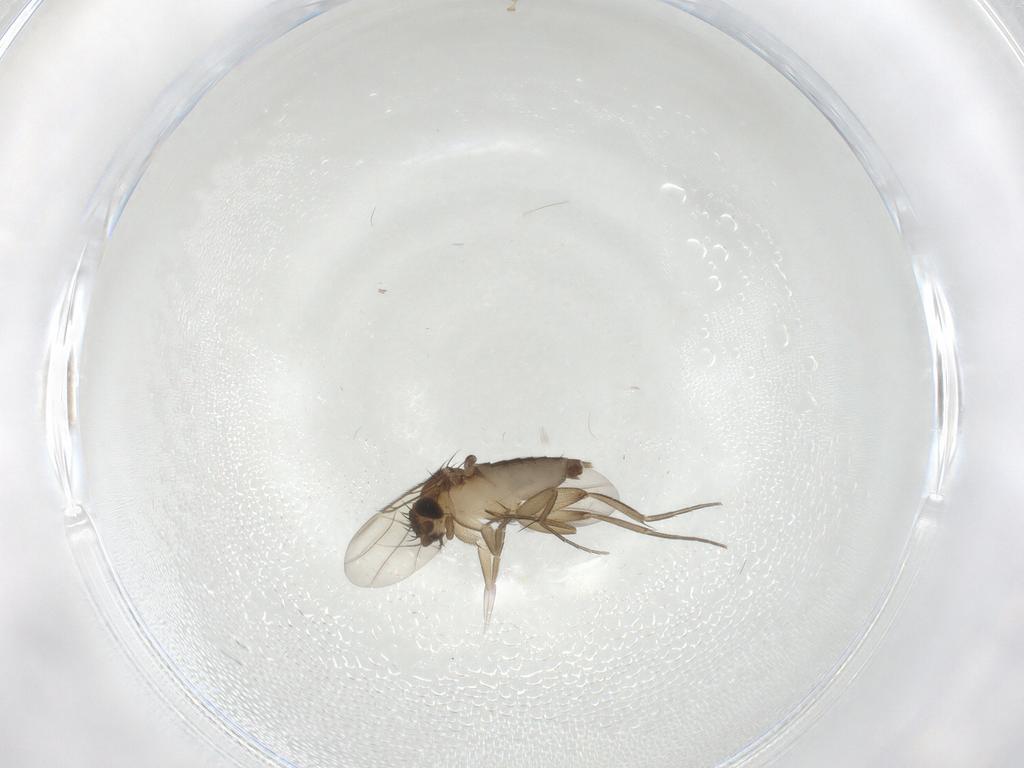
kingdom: Animalia
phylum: Arthropoda
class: Insecta
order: Diptera
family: Phoridae
